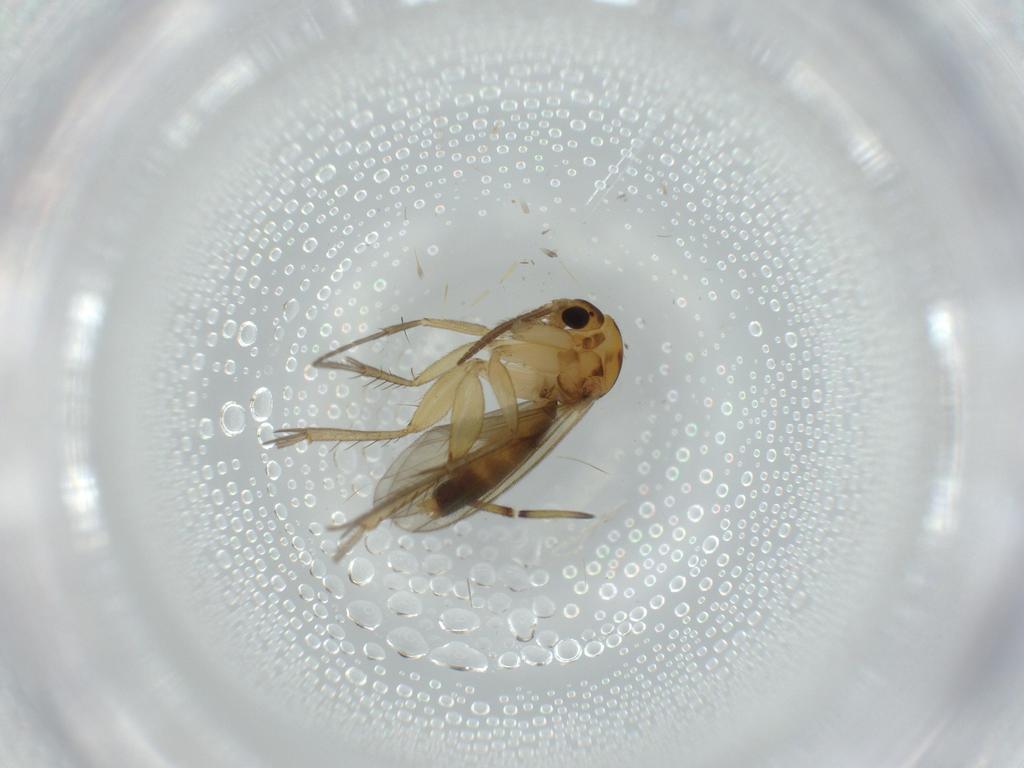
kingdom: Animalia
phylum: Arthropoda
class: Insecta
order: Diptera
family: Mycetophilidae
